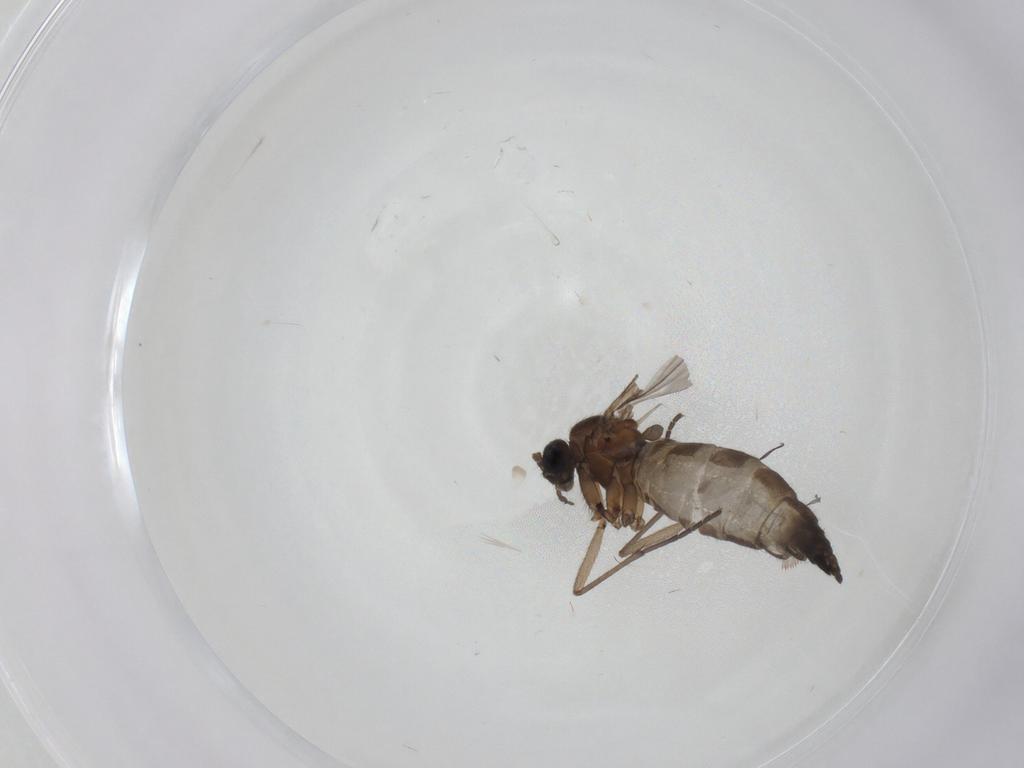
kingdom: Animalia
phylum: Arthropoda
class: Insecta
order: Diptera
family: Sciaridae
